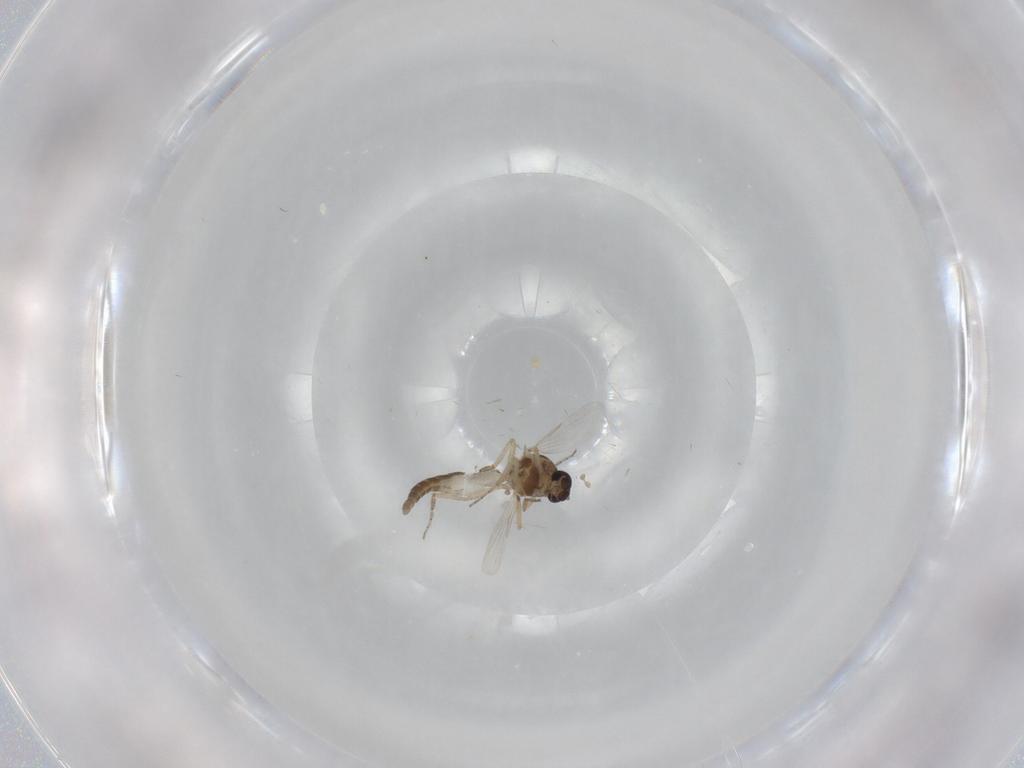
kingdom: Animalia
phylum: Arthropoda
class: Insecta
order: Diptera
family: Ceratopogonidae
